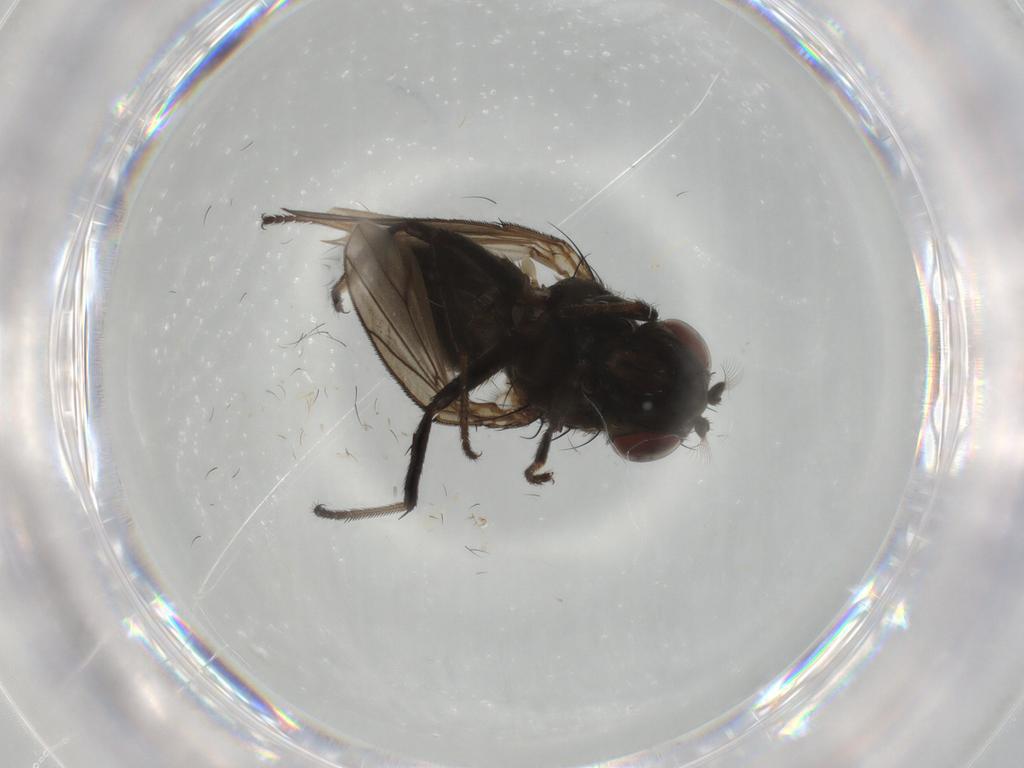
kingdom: Animalia
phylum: Arthropoda
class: Insecta
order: Diptera
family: Ephydridae
